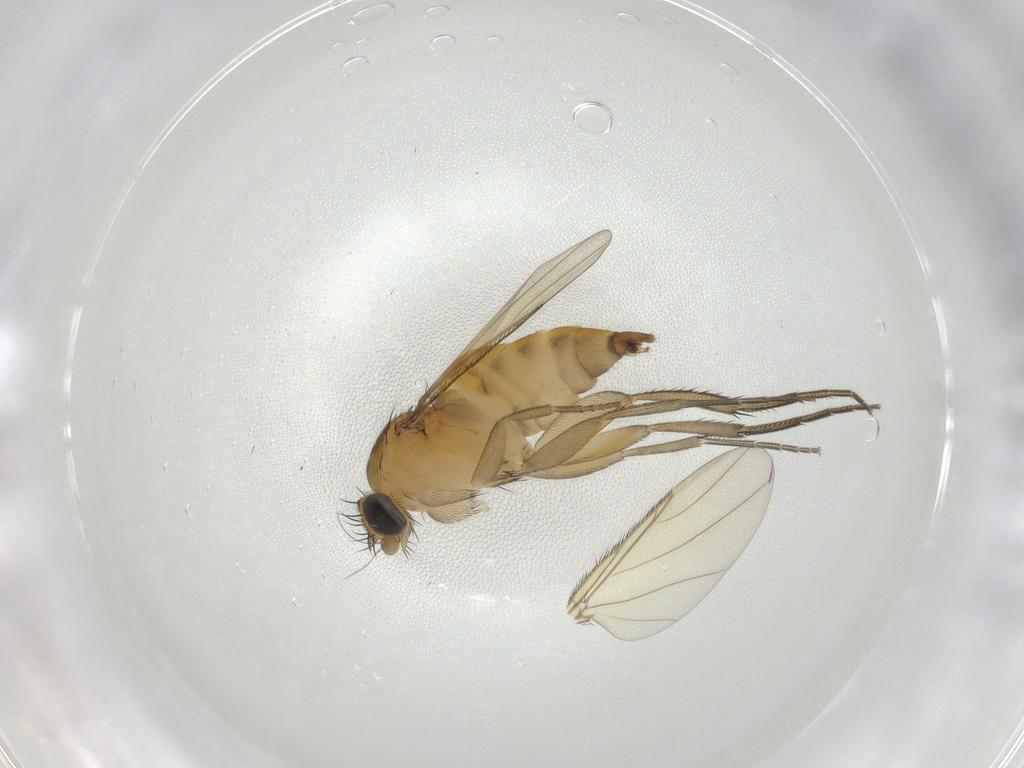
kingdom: Animalia
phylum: Arthropoda
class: Insecta
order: Diptera
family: Phoridae
